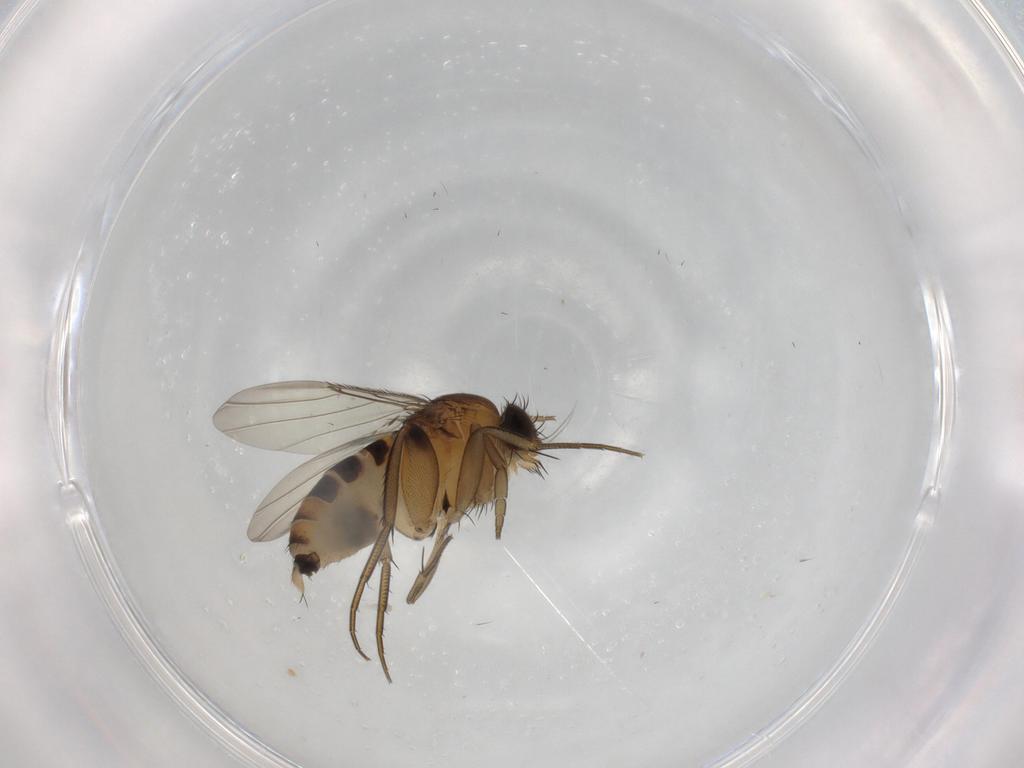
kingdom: Animalia
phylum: Arthropoda
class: Insecta
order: Diptera
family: Phoridae
